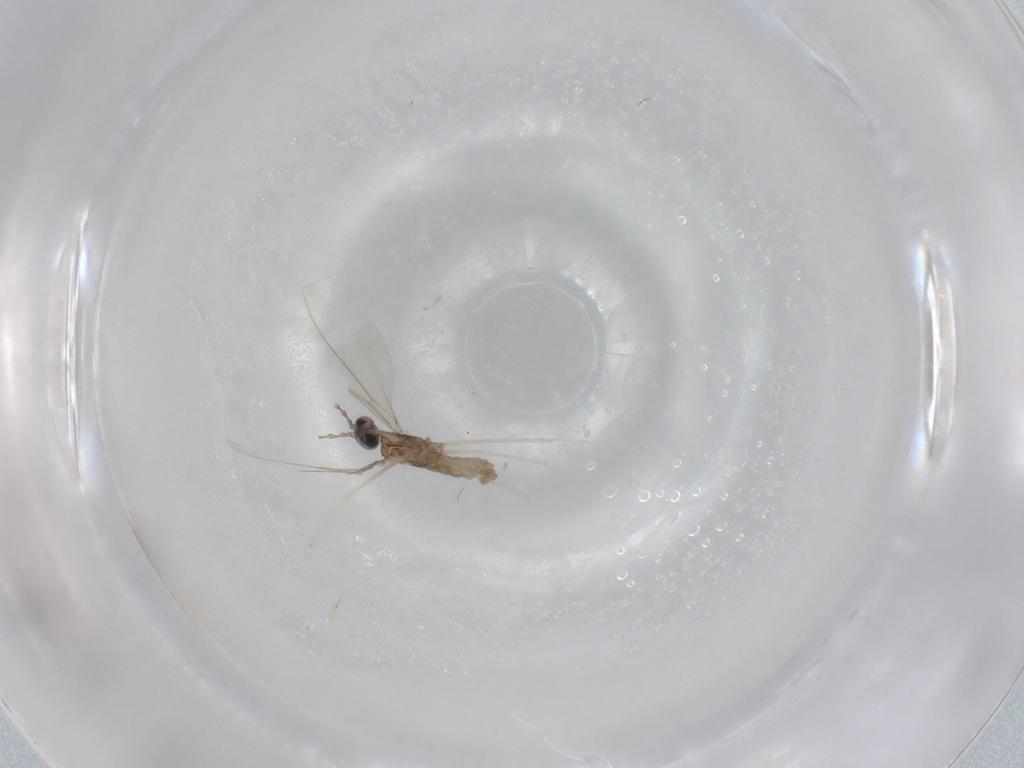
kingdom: Animalia
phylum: Arthropoda
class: Insecta
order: Diptera
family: Cecidomyiidae
